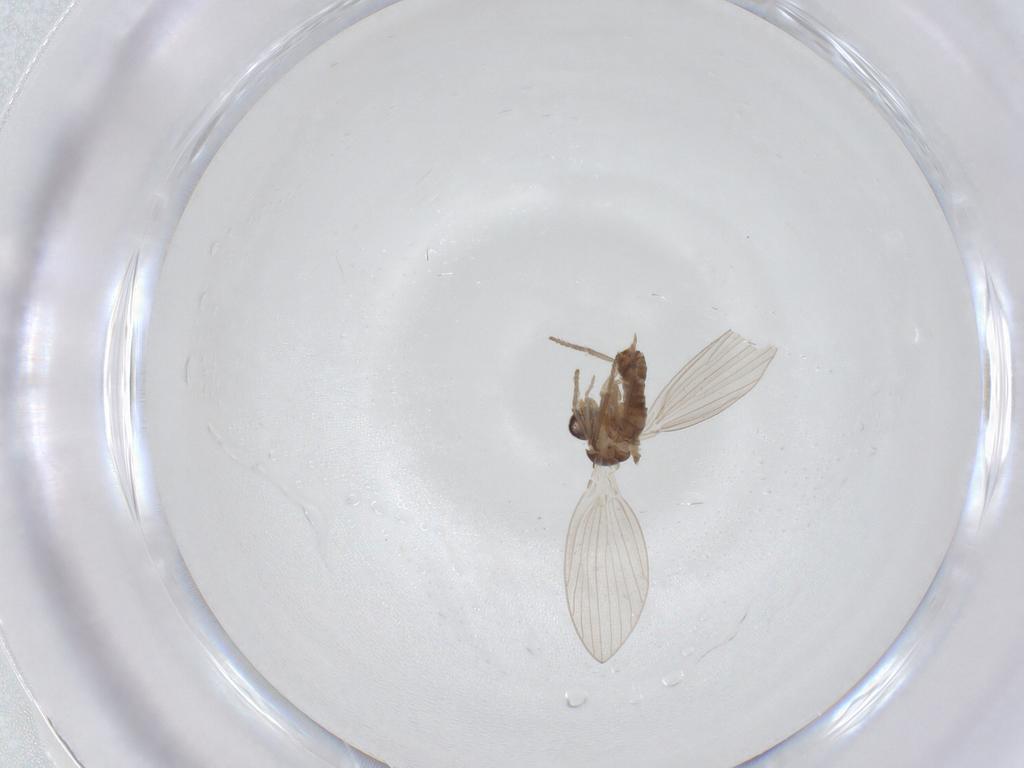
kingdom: Animalia
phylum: Arthropoda
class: Insecta
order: Diptera
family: Psychodidae
